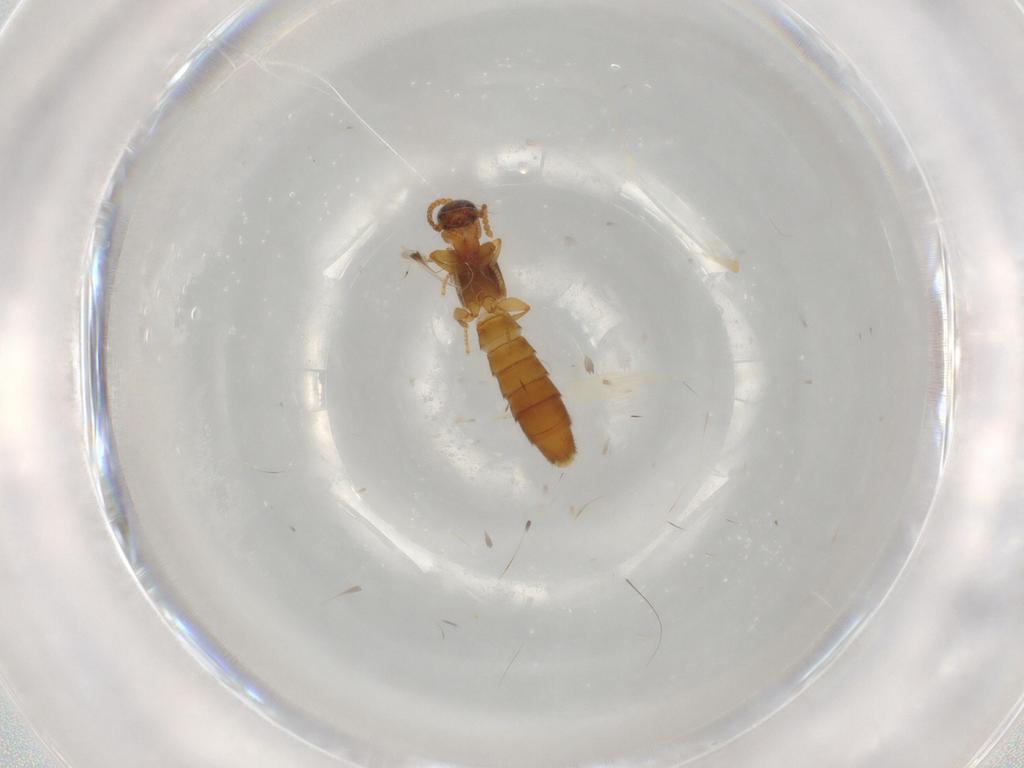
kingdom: Animalia
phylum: Arthropoda
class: Insecta
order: Coleoptera
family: Staphylinidae
